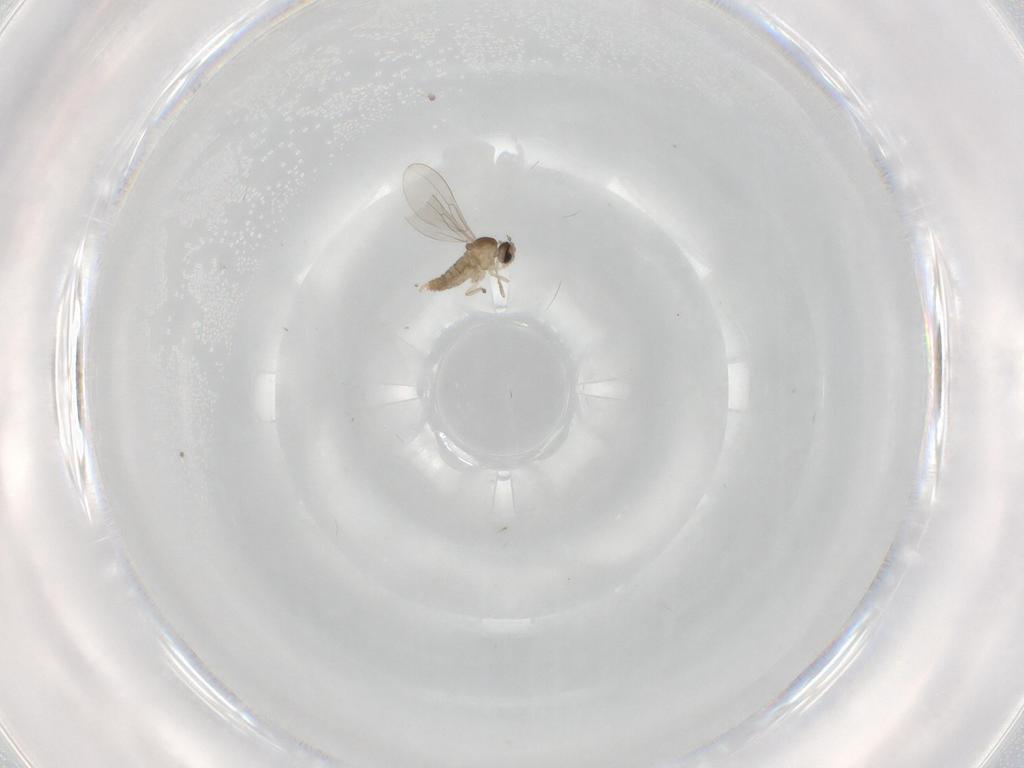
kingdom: Animalia
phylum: Arthropoda
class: Insecta
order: Diptera
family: Cecidomyiidae
